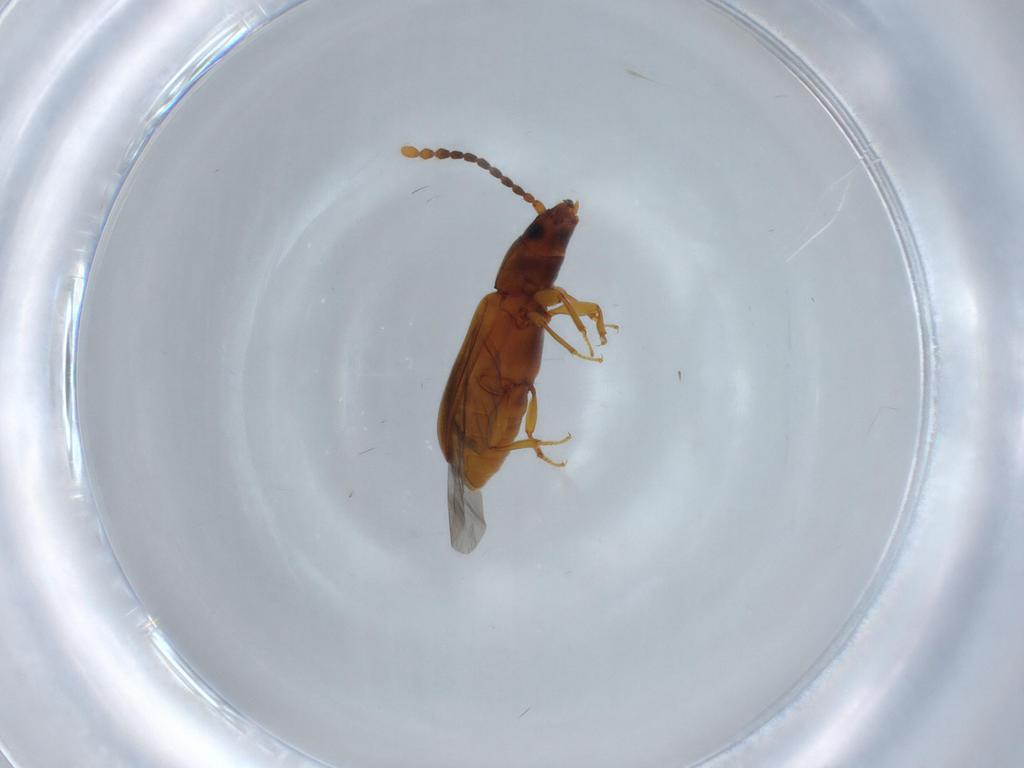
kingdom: Animalia
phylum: Arthropoda
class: Insecta
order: Coleoptera
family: Laemophloeidae
